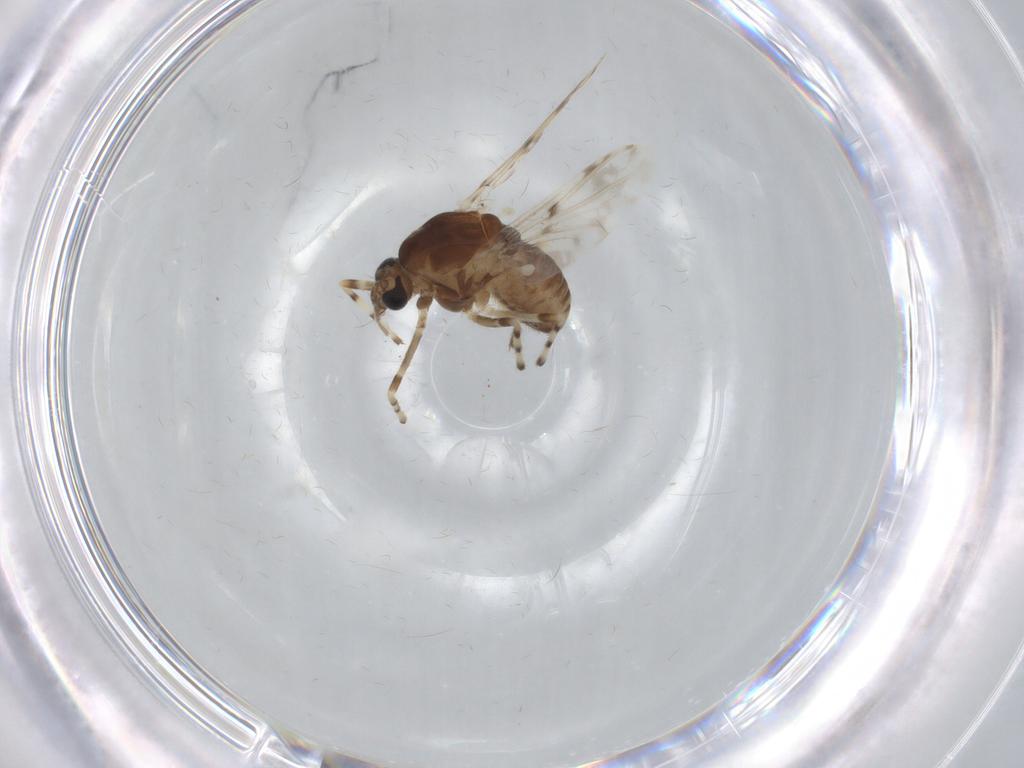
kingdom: Animalia
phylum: Arthropoda
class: Insecta
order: Diptera
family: Chironomidae
